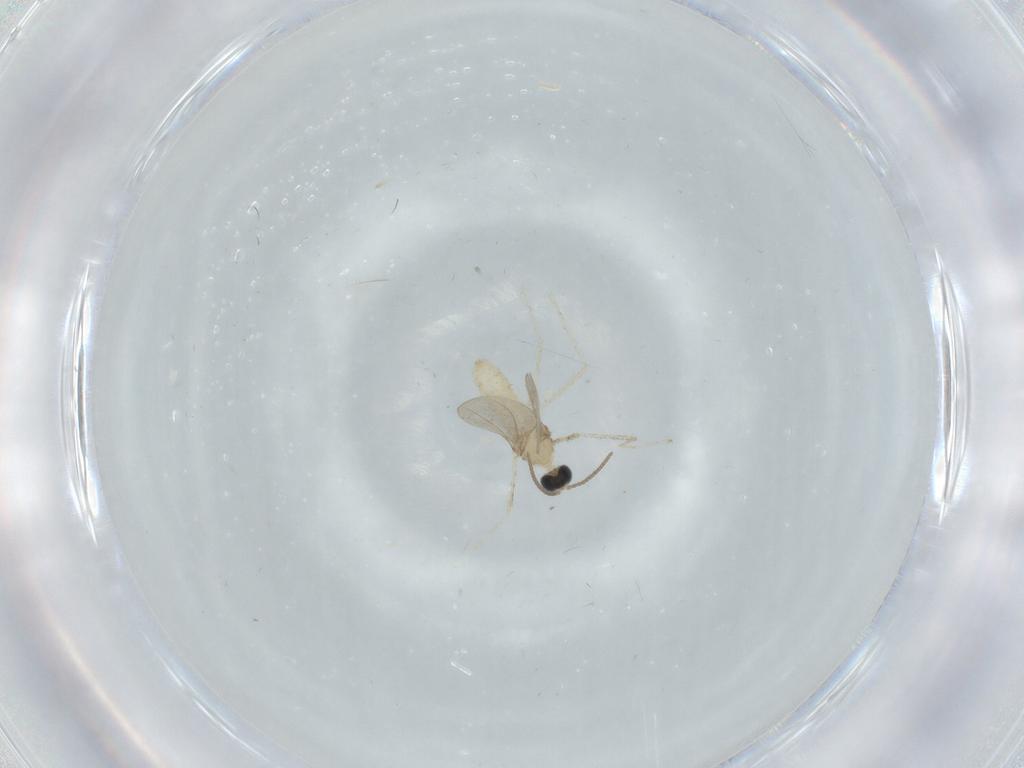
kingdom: Animalia
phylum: Arthropoda
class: Insecta
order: Diptera
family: Cecidomyiidae
